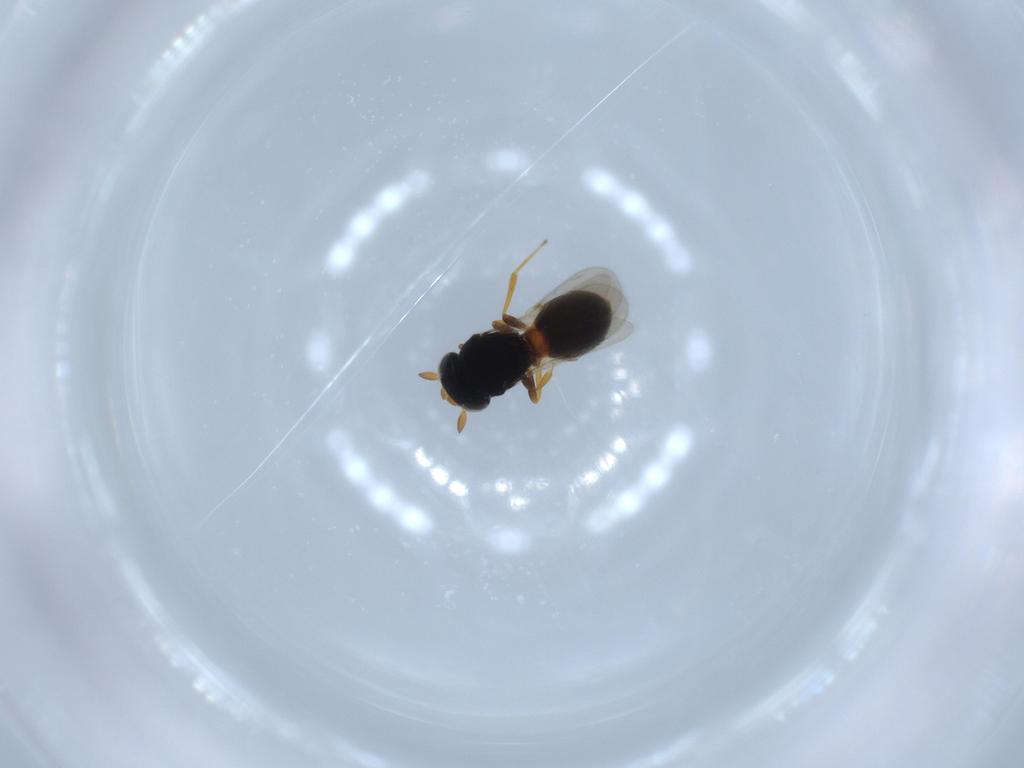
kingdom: Animalia
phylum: Arthropoda
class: Insecta
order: Hymenoptera
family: Scelionidae
